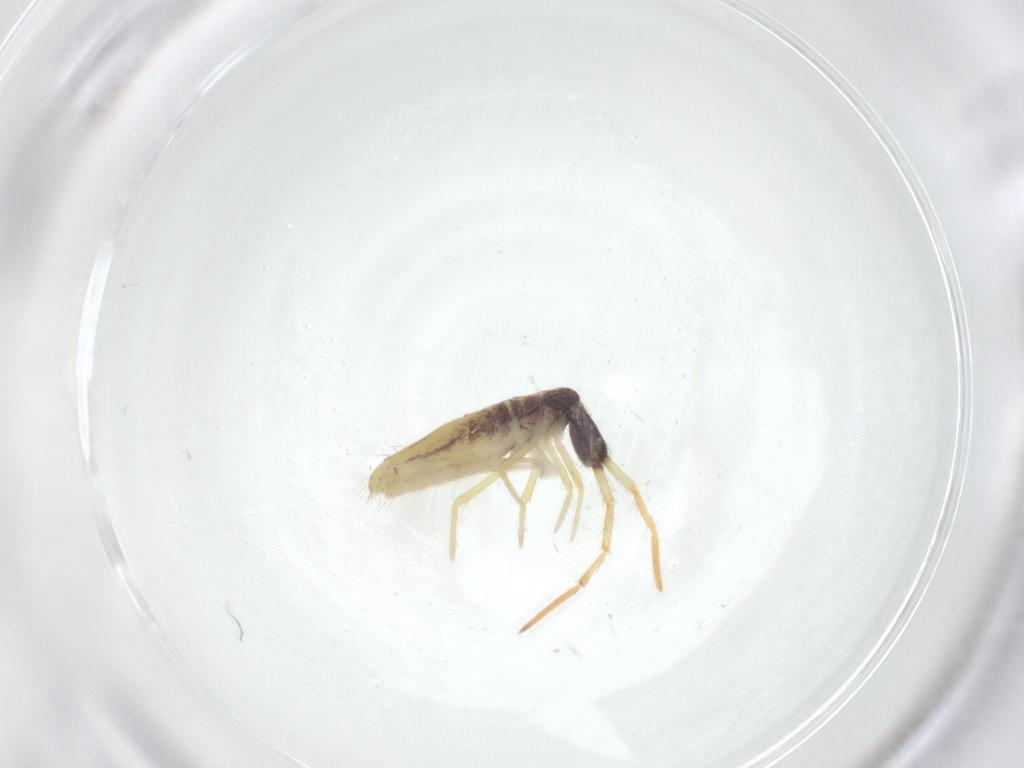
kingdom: Animalia
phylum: Arthropoda
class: Collembola
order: Entomobryomorpha
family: Entomobryidae
